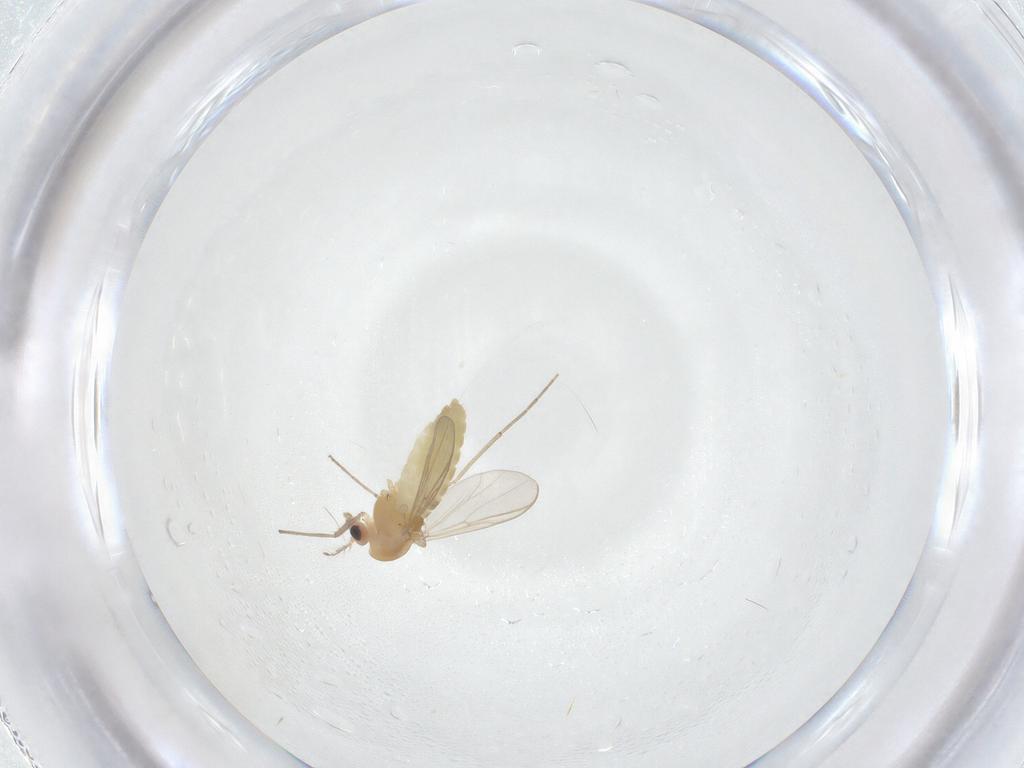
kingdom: Animalia
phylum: Arthropoda
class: Insecta
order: Diptera
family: Chironomidae
